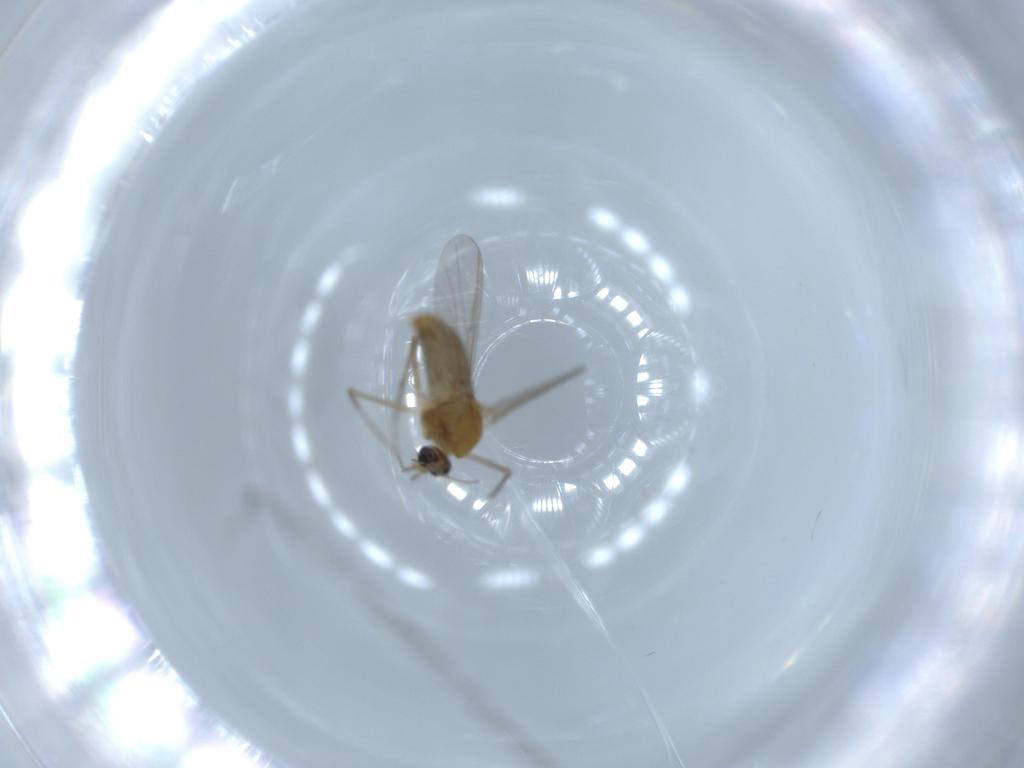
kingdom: Animalia
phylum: Arthropoda
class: Insecta
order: Diptera
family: Chironomidae
